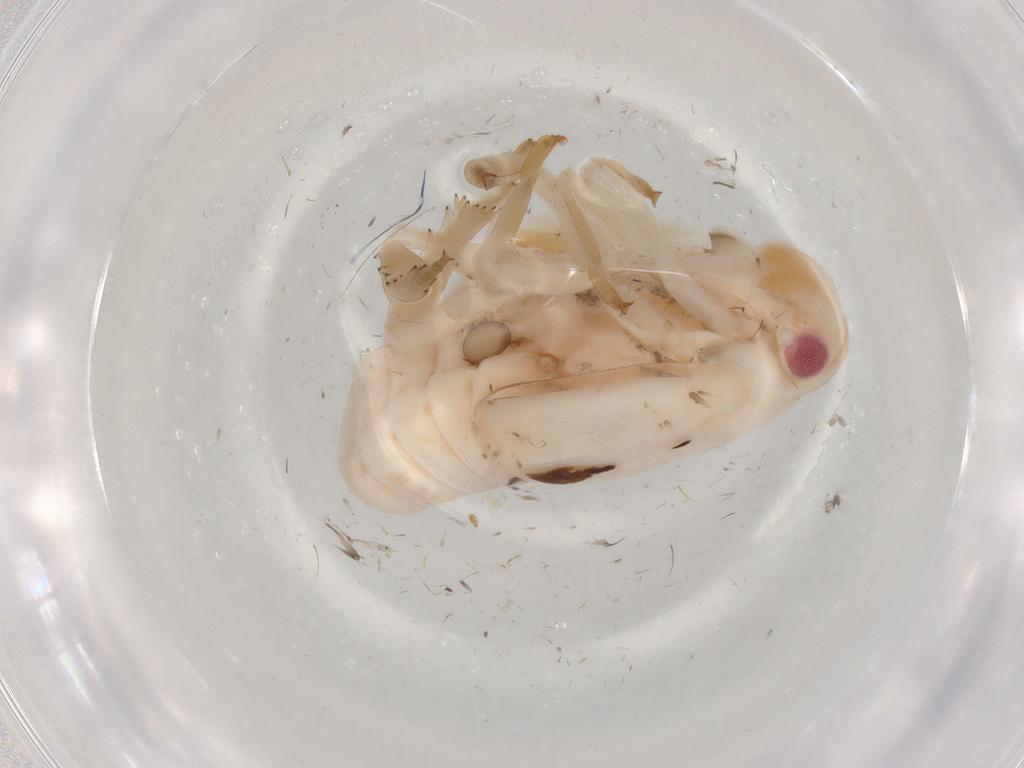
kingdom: Animalia
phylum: Arthropoda
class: Insecta
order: Hemiptera
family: Flatidae
